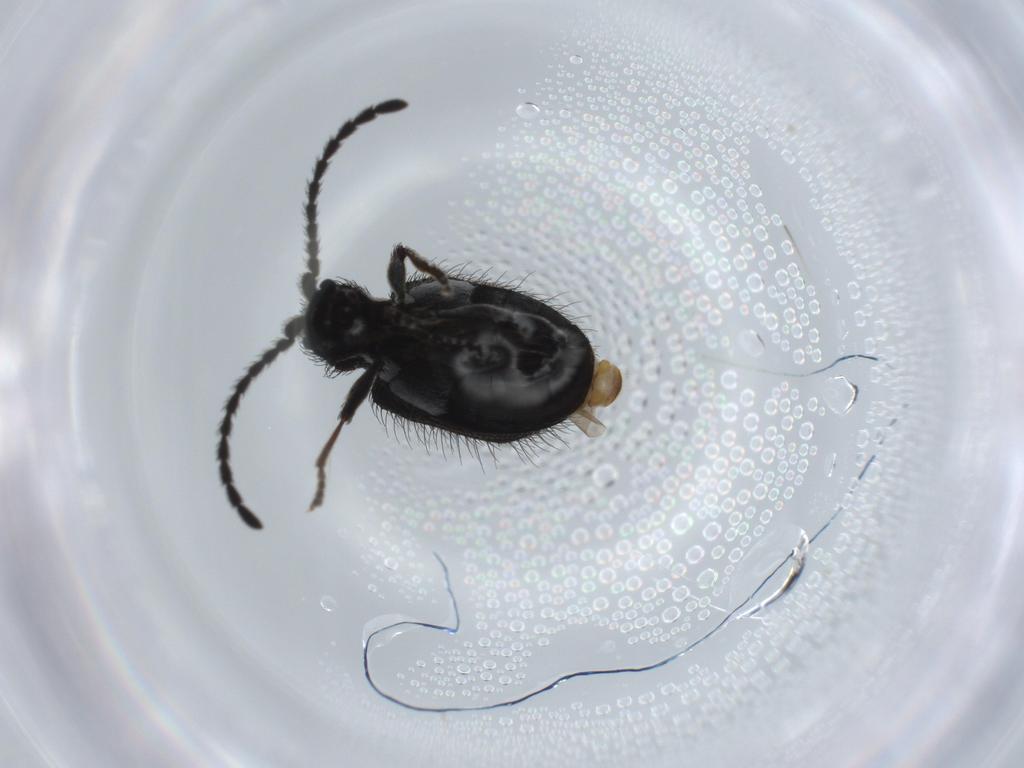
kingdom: Animalia
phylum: Arthropoda
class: Insecta
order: Coleoptera
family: Ptinidae
